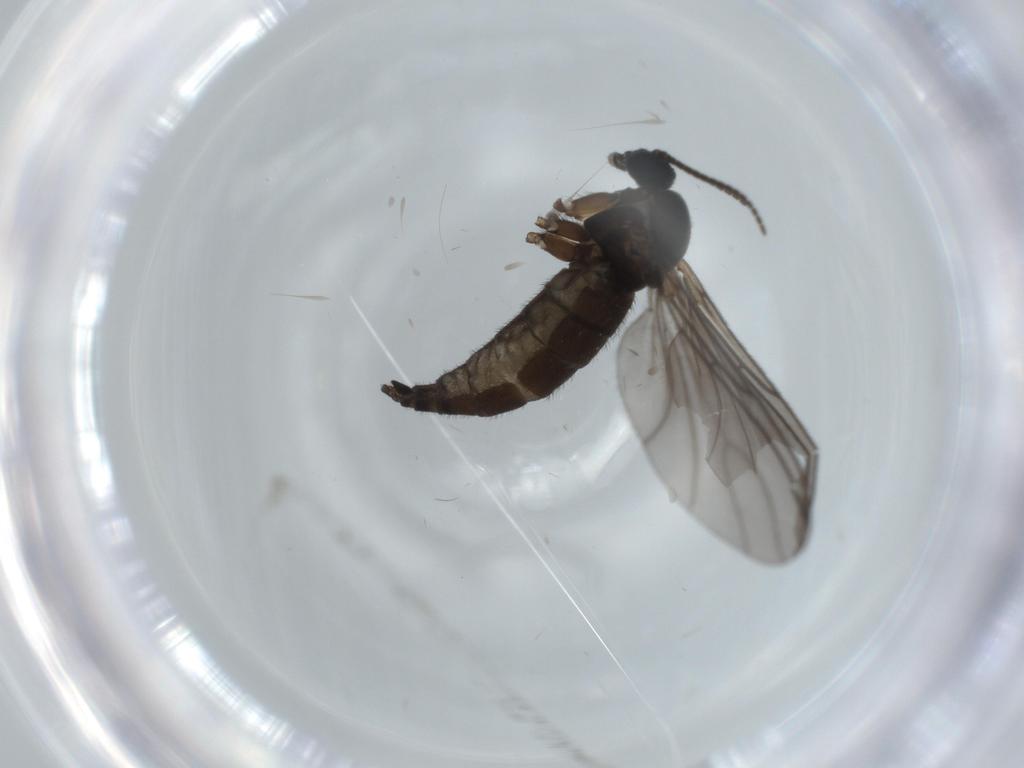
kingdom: Animalia
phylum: Arthropoda
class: Insecta
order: Diptera
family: Sciaridae
